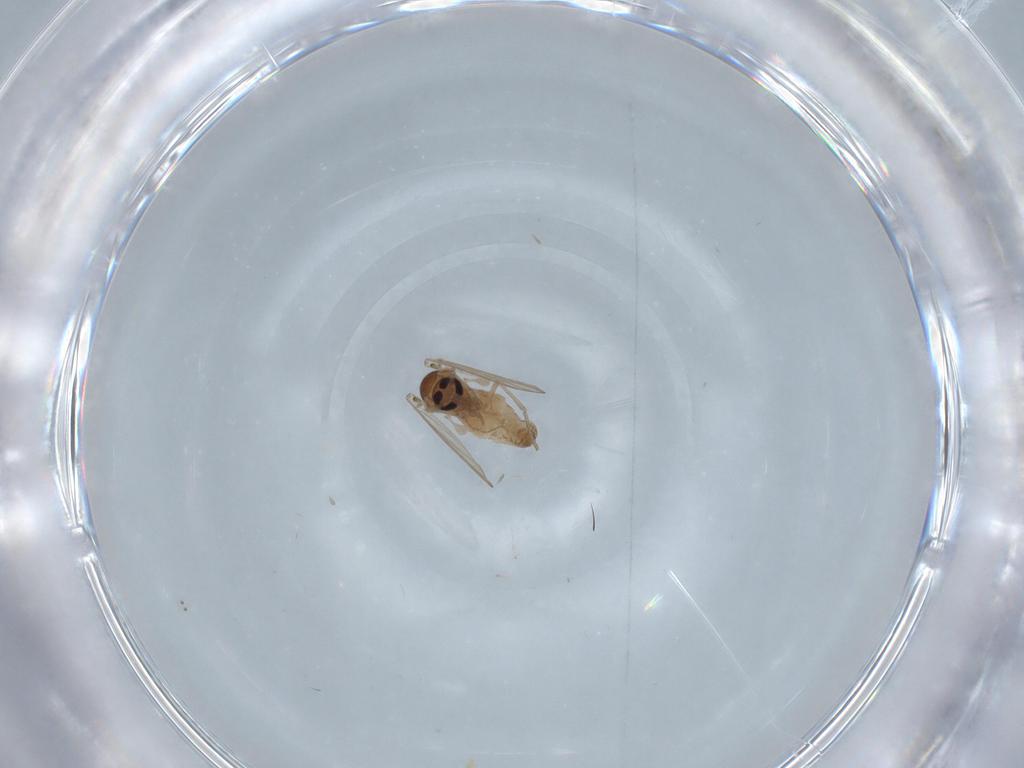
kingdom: Animalia
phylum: Arthropoda
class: Insecta
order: Diptera
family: Psychodidae
